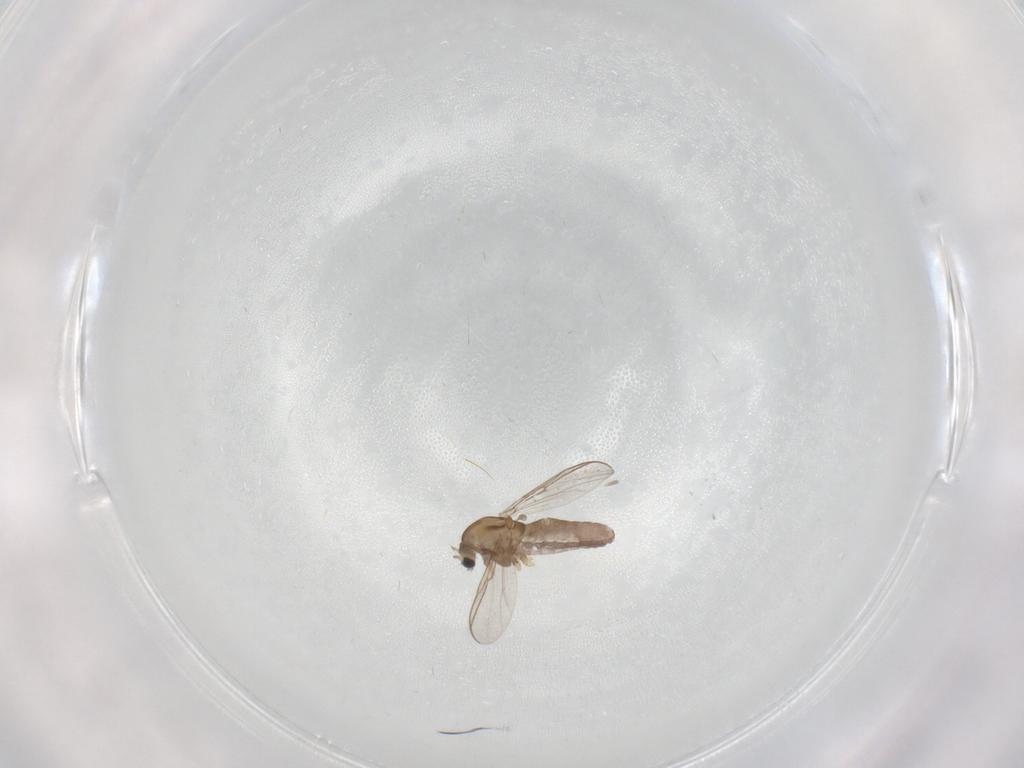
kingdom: Animalia
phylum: Arthropoda
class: Insecta
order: Diptera
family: Chironomidae
